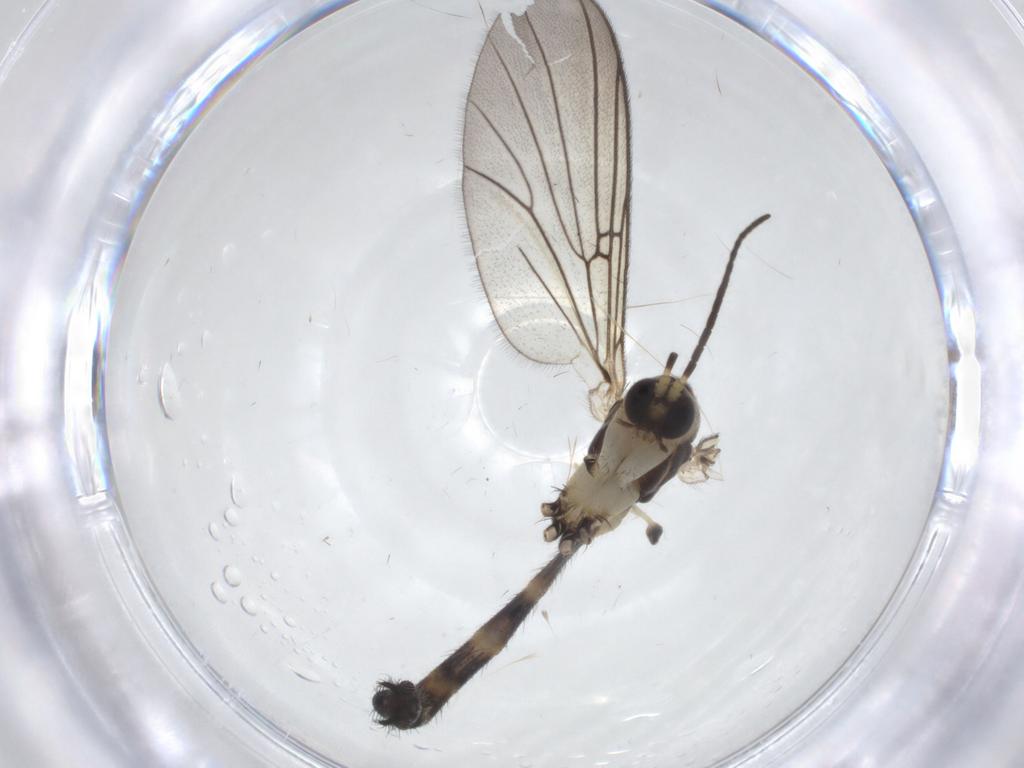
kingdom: Animalia
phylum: Arthropoda
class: Insecta
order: Diptera
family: Mycetophilidae
